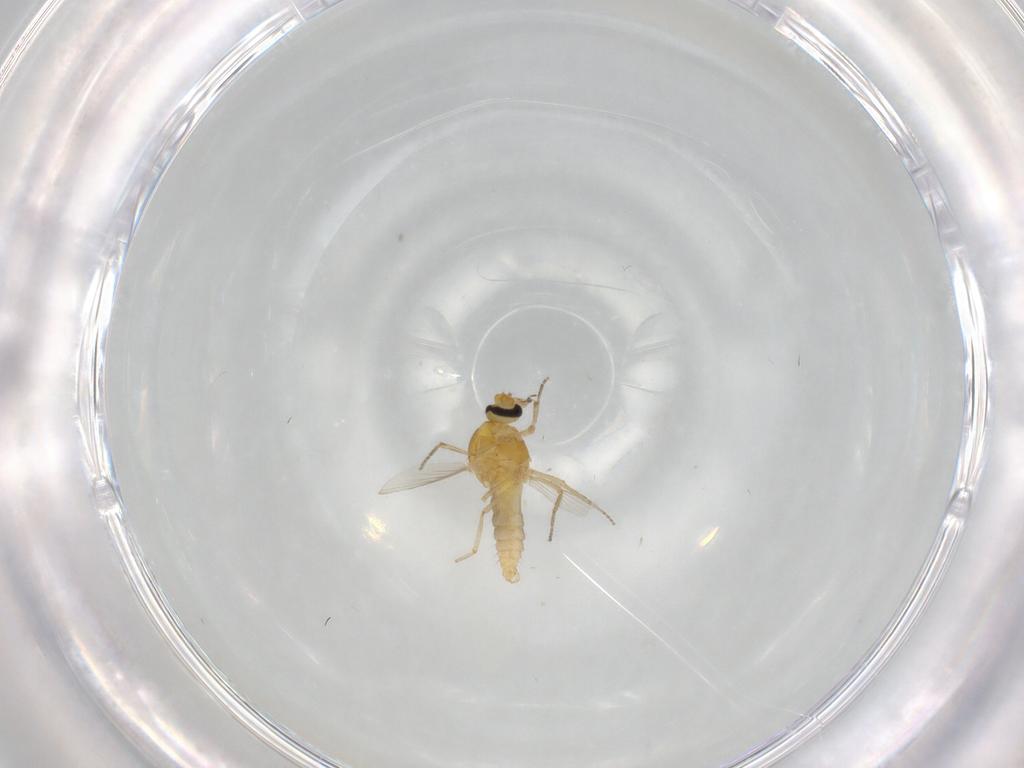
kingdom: Animalia
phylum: Arthropoda
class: Insecta
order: Diptera
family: Ceratopogonidae
